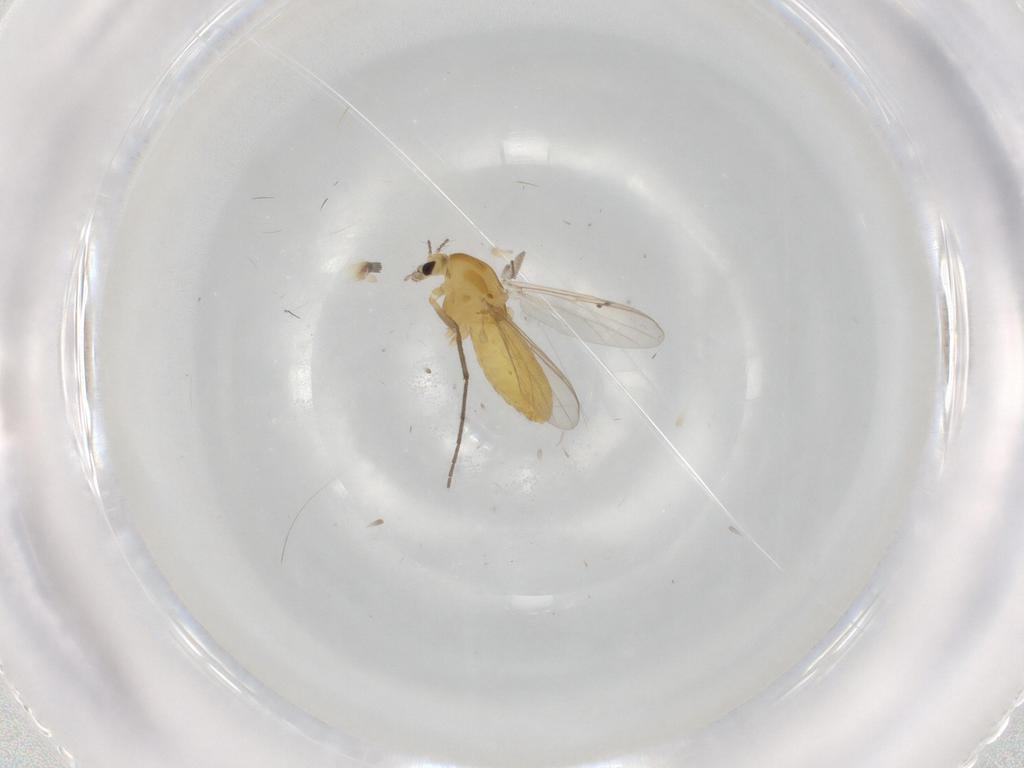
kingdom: Animalia
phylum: Arthropoda
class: Insecta
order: Diptera
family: Chironomidae
